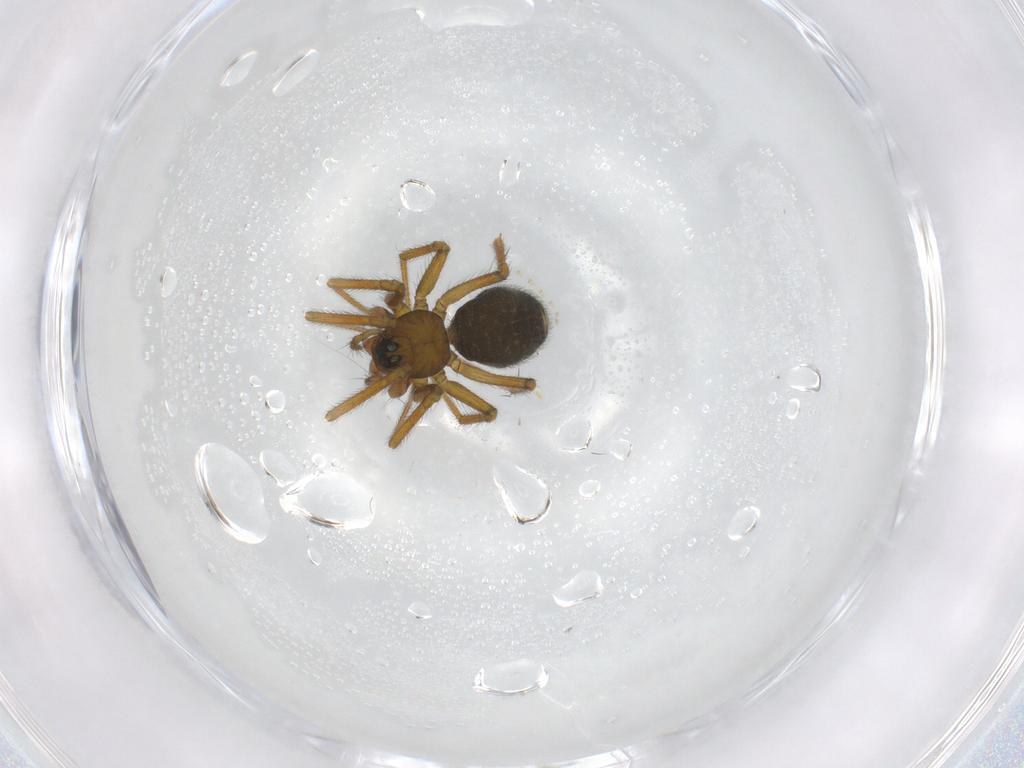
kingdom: Animalia
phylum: Arthropoda
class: Arachnida
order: Araneae
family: Linyphiidae
